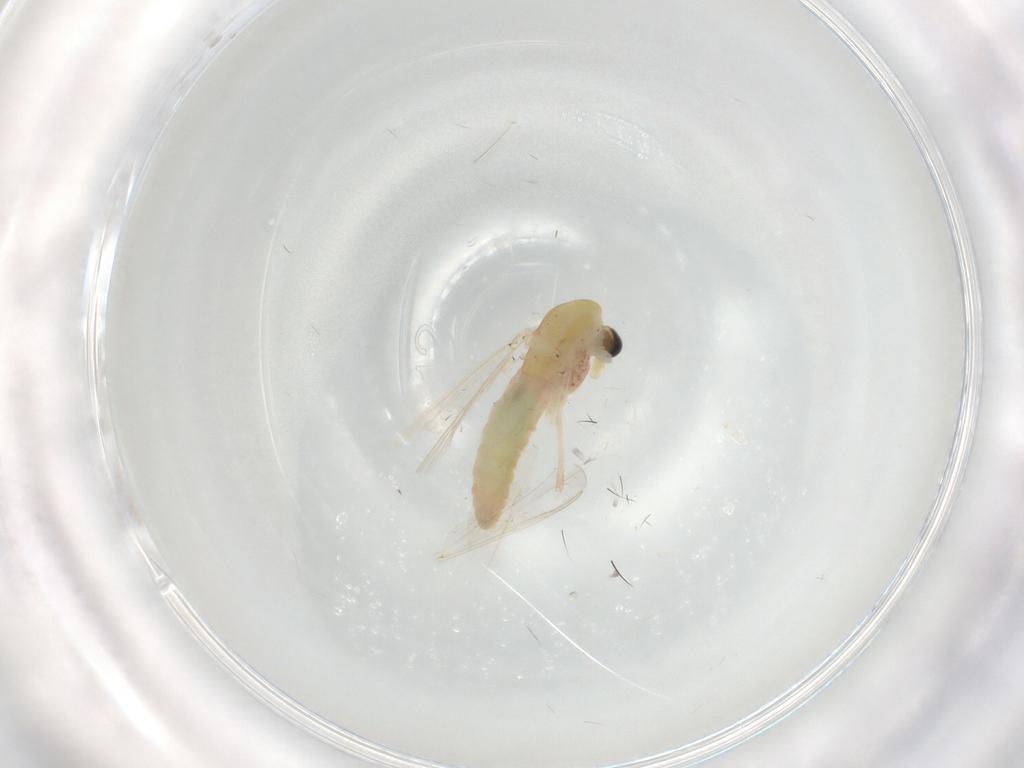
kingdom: Animalia
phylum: Arthropoda
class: Insecta
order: Diptera
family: Chironomidae
